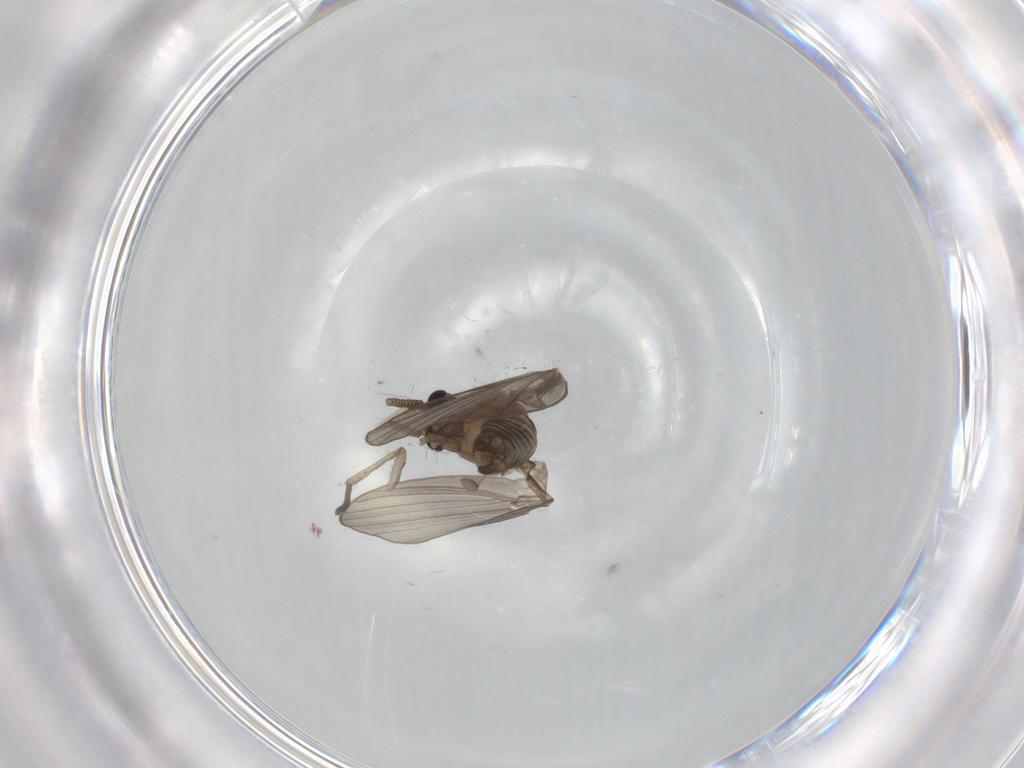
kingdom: Animalia
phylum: Arthropoda
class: Insecta
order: Diptera
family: Psychodidae
